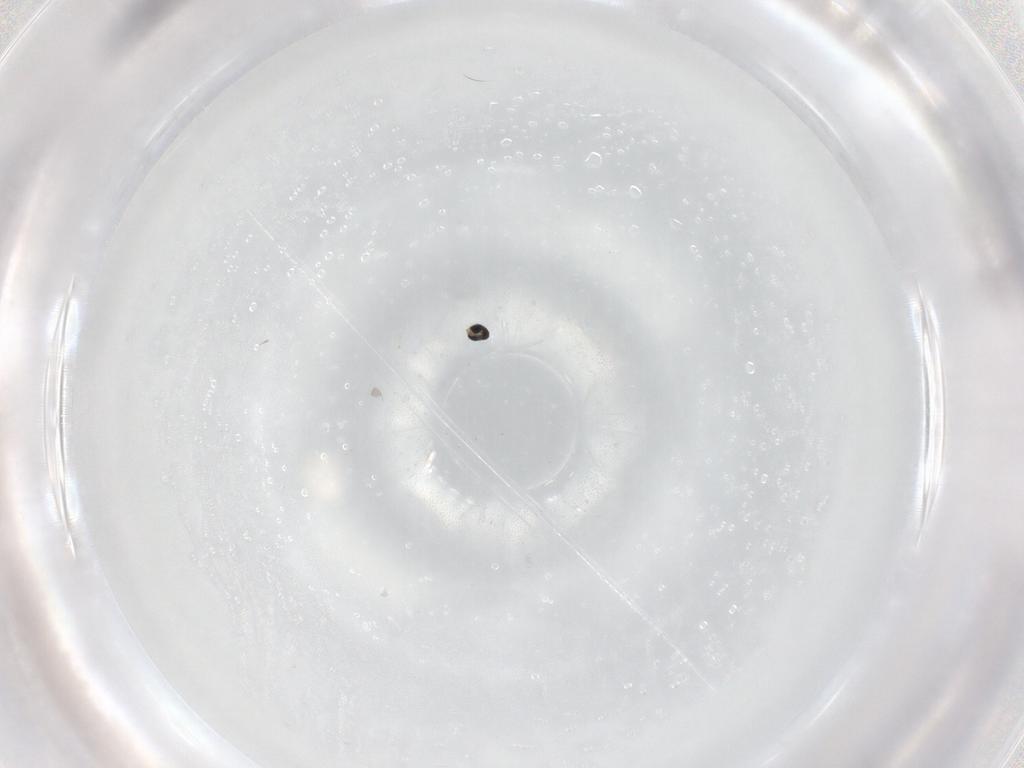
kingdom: Animalia
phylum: Arthropoda
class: Insecta
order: Diptera
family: Cecidomyiidae
